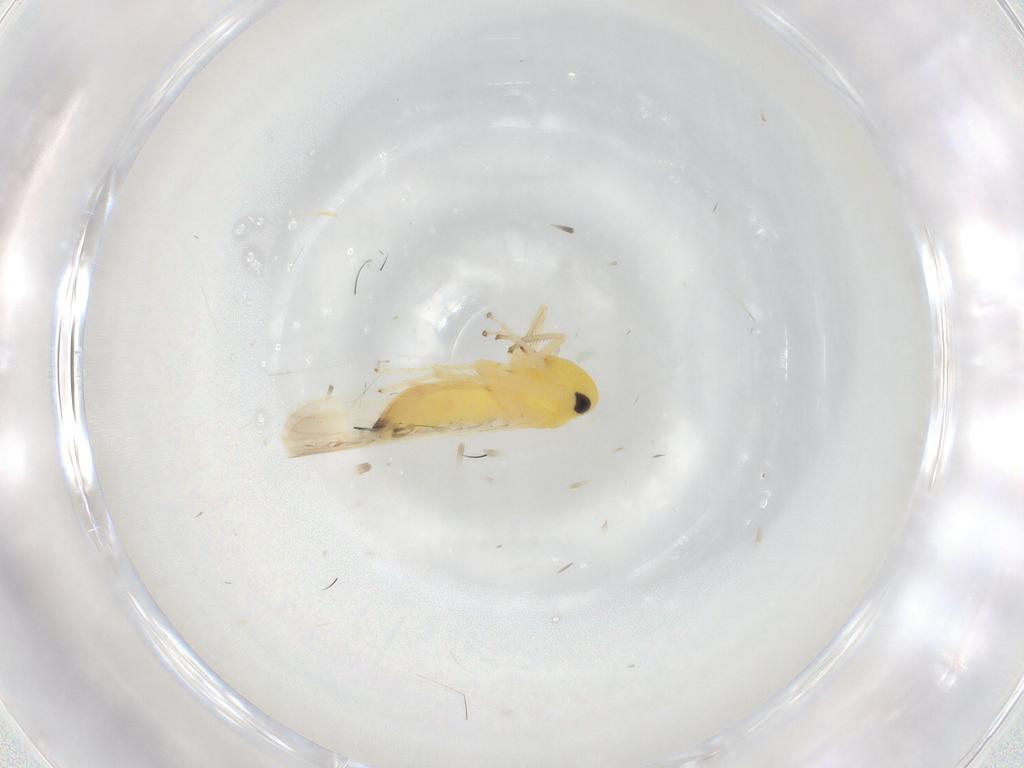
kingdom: Animalia
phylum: Arthropoda
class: Insecta
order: Hemiptera
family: Cicadellidae
